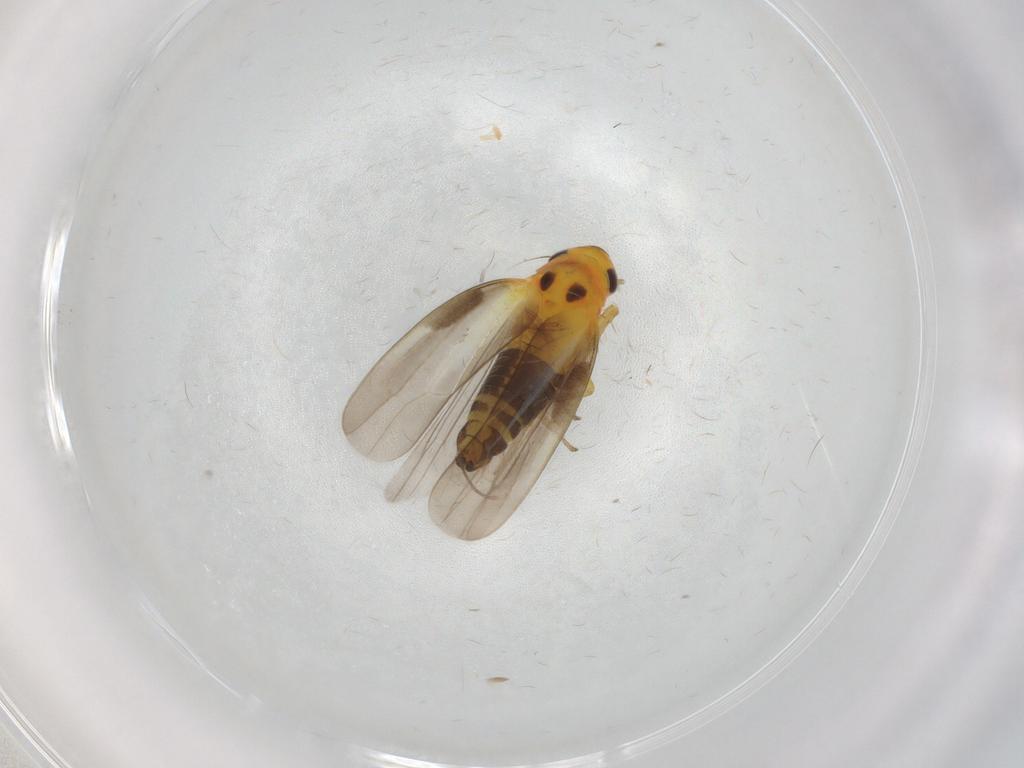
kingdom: Animalia
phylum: Arthropoda
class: Insecta
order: Hemiptera
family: Cicadellidae
